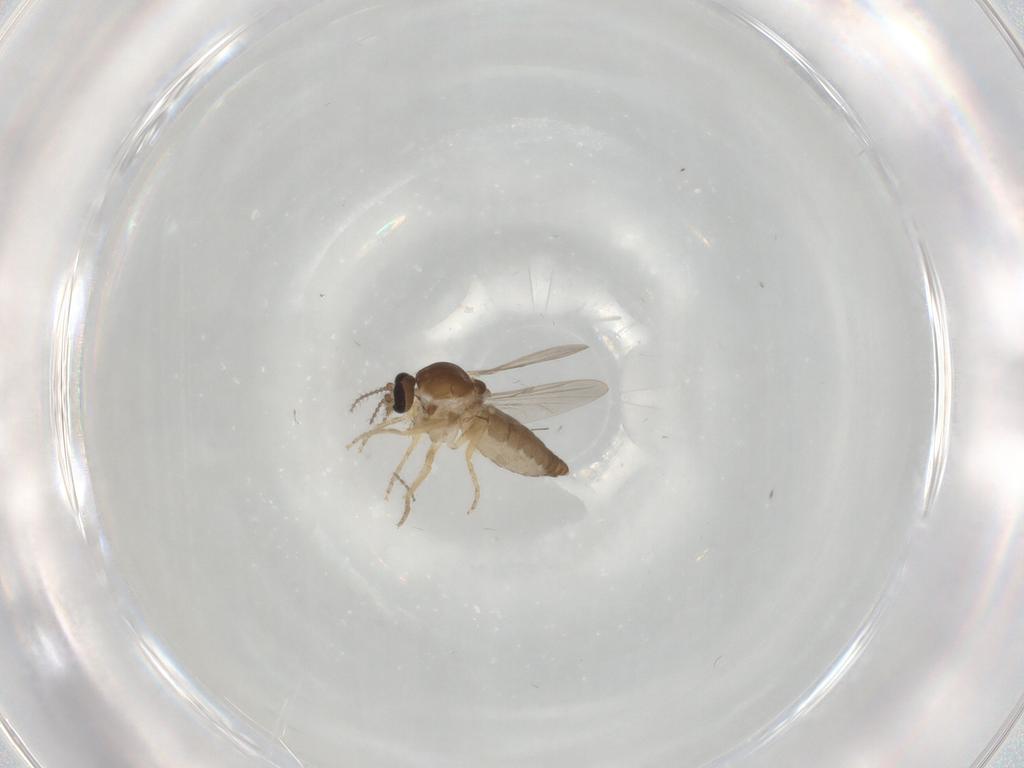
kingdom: Animalia
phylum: Arthropoda
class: Insecta
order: Diptera
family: Ceratopogonidae
